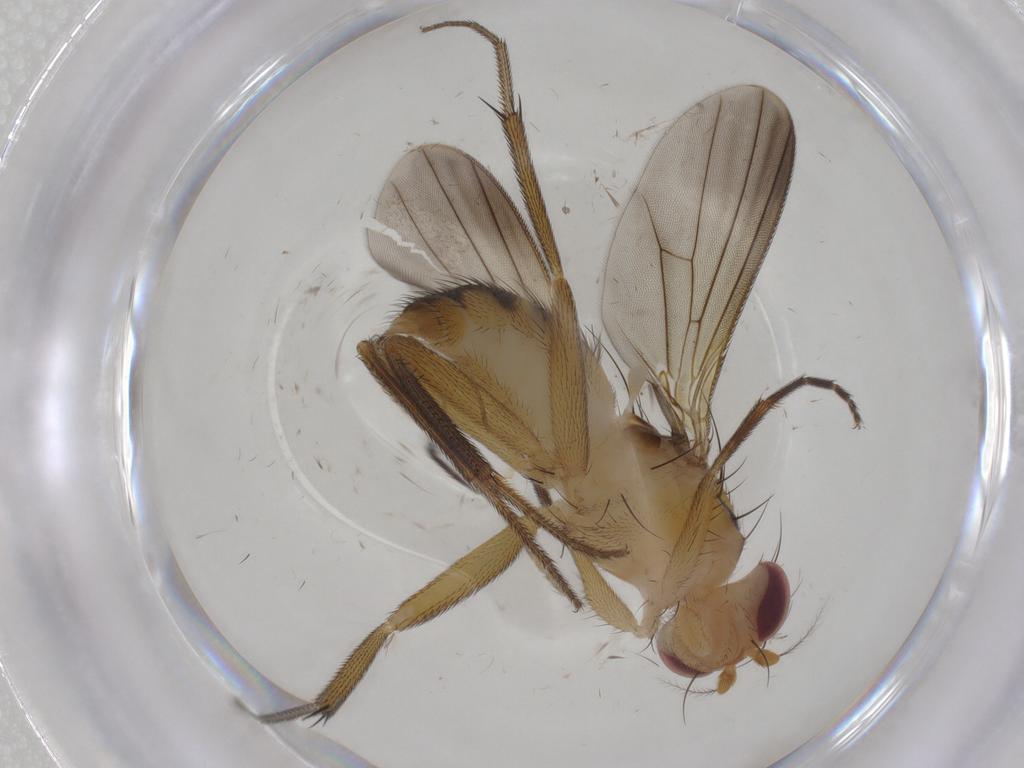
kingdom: Animalia
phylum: Arthropoda
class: Insecta
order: Diptera
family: Clusiidae
